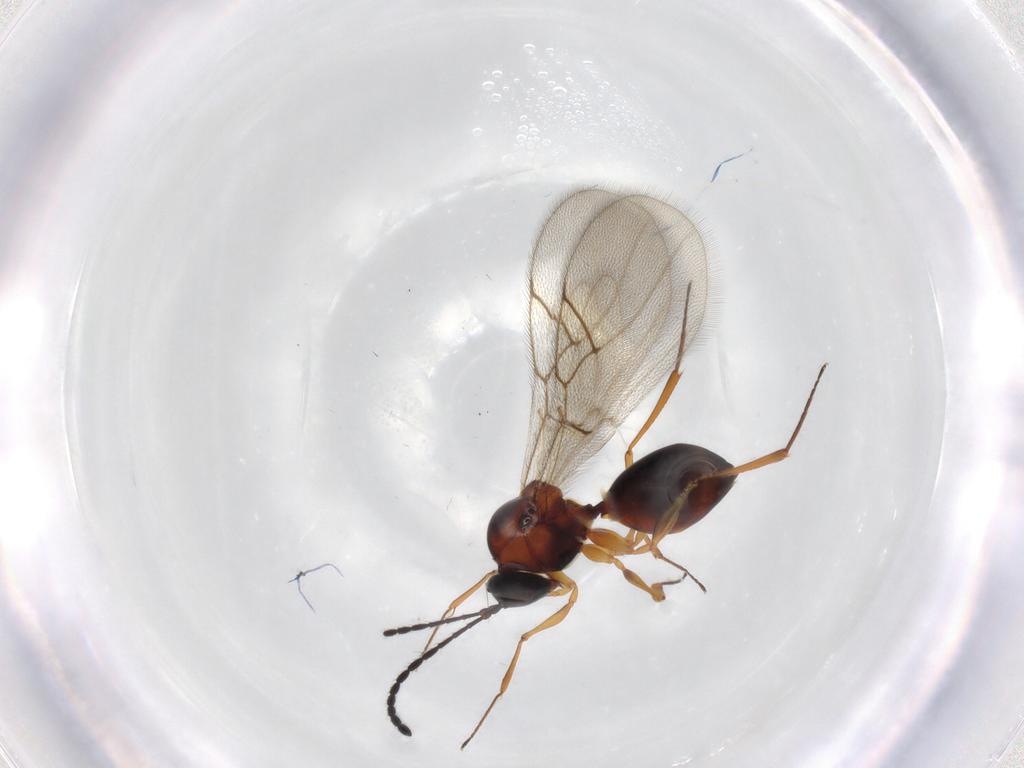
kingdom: Animalia
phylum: Arthropoda
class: Insecta
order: Hymenoptera
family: Figitidae
